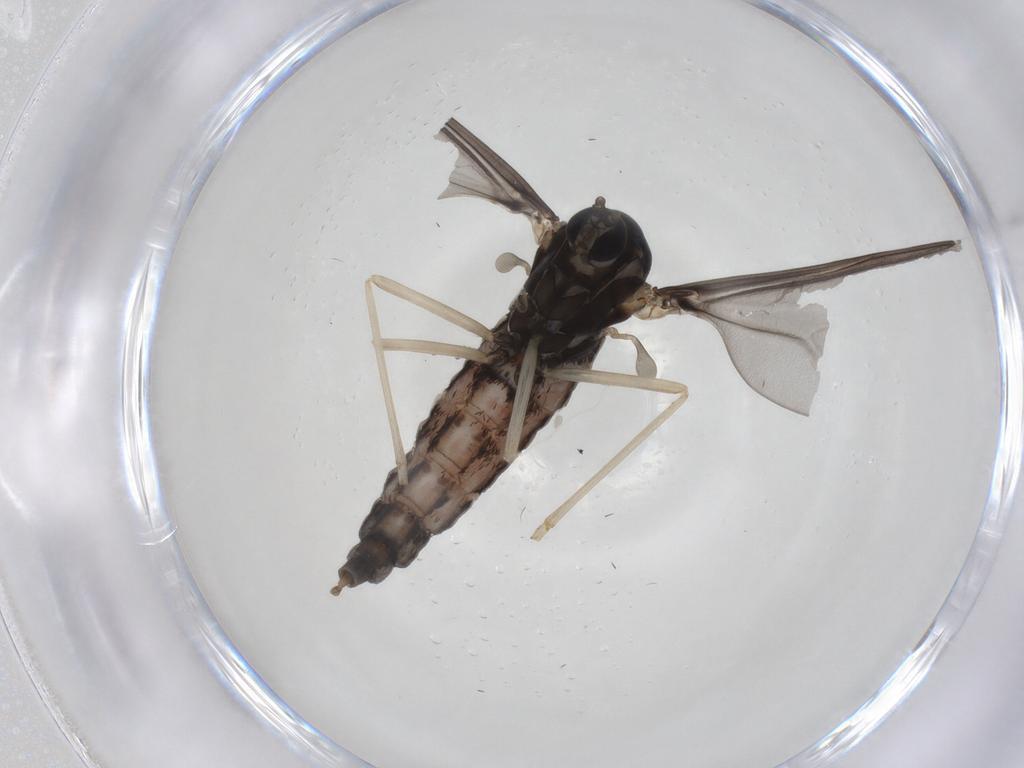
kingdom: Animalia
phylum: Arthropoda
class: Insecta
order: Diptera
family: Cecidomyiidae
